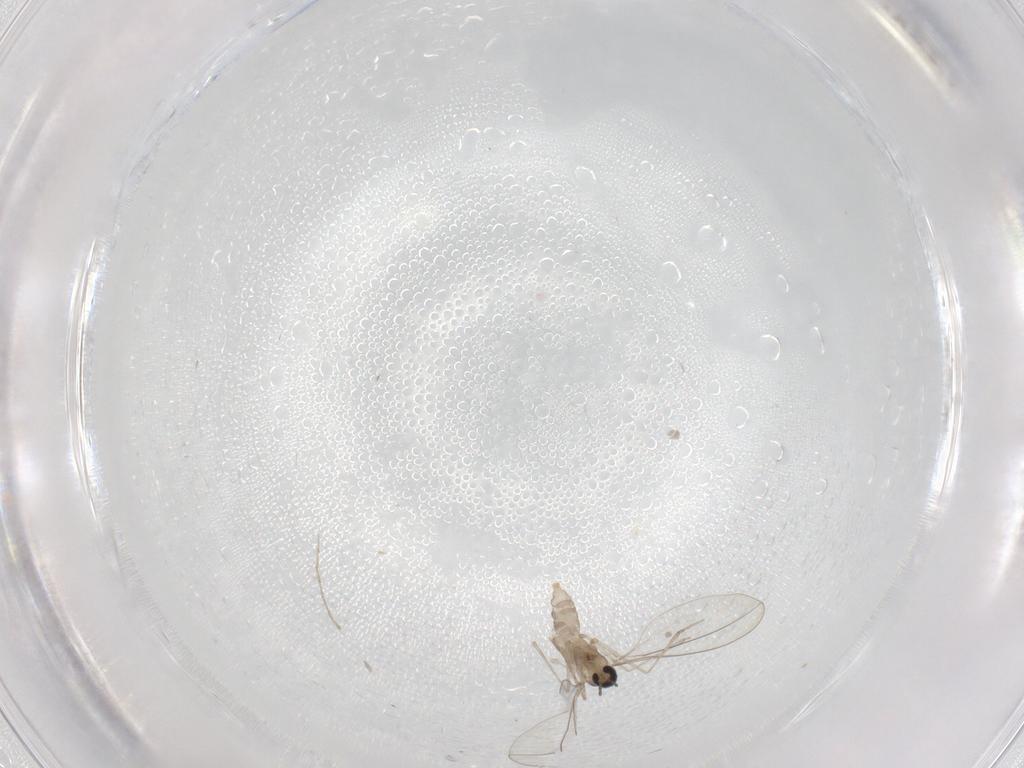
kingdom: Animalia
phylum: Arthropoda
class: Insecta
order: Diptera
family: Cecidomyiidae
